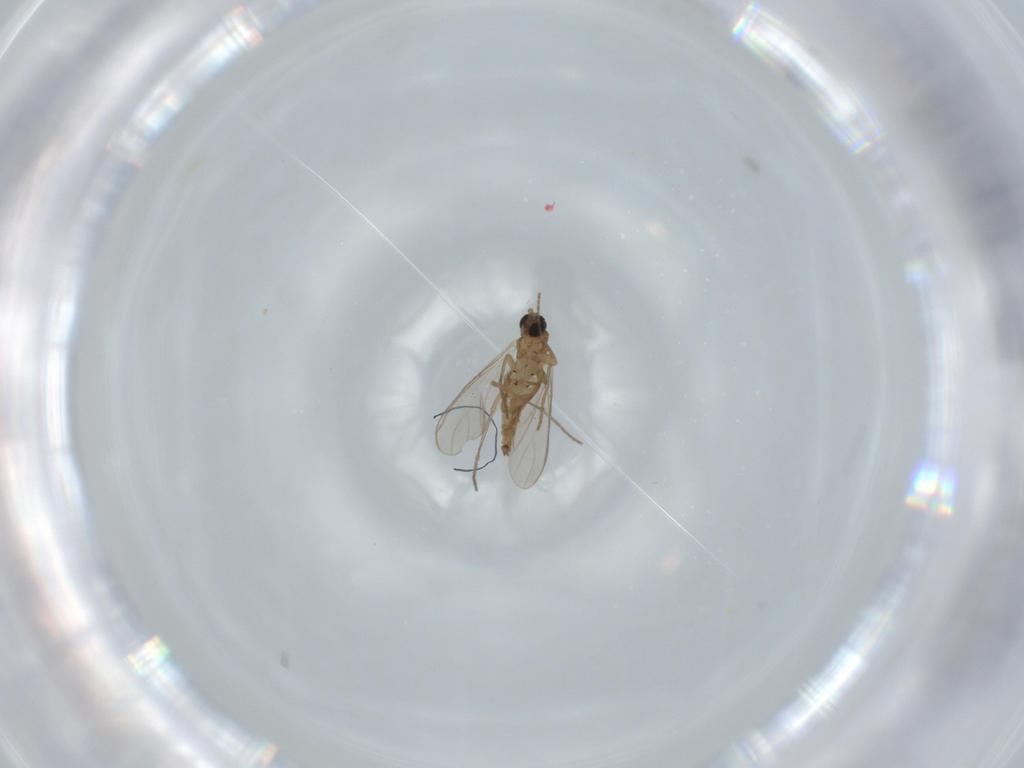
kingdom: Animalia
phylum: Arthropoda
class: Insecta
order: Diptera
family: Sciaridae
